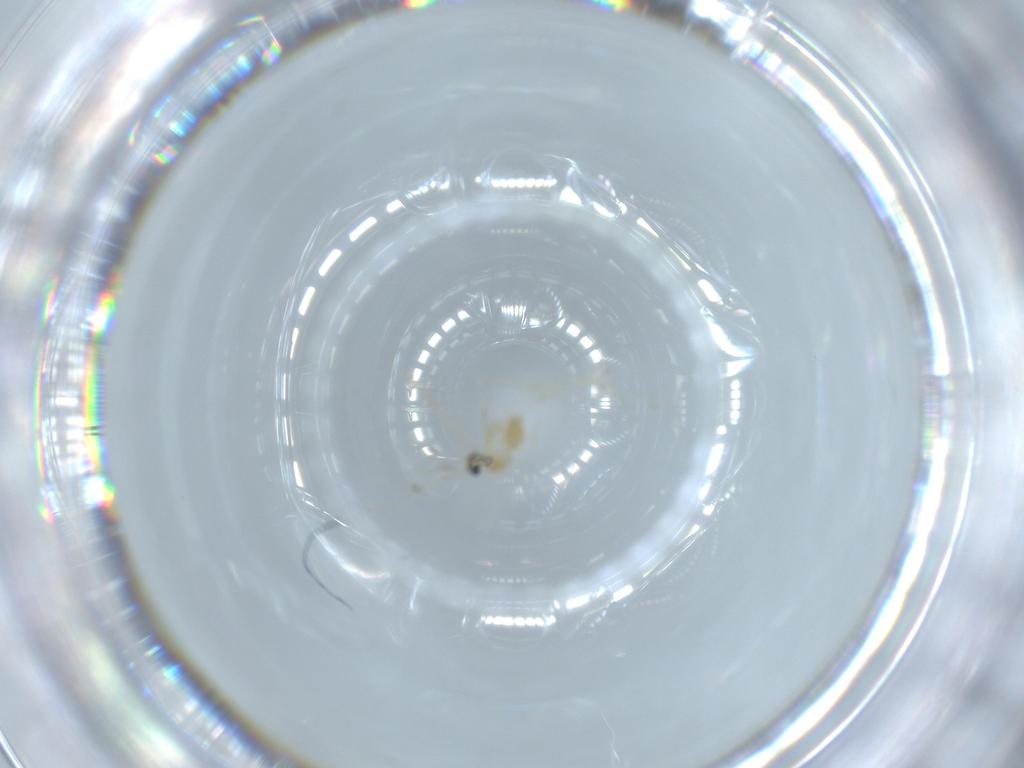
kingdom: Animalia
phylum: Arthropoda
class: Insecta
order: Diptera
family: Cecidomyiidae
